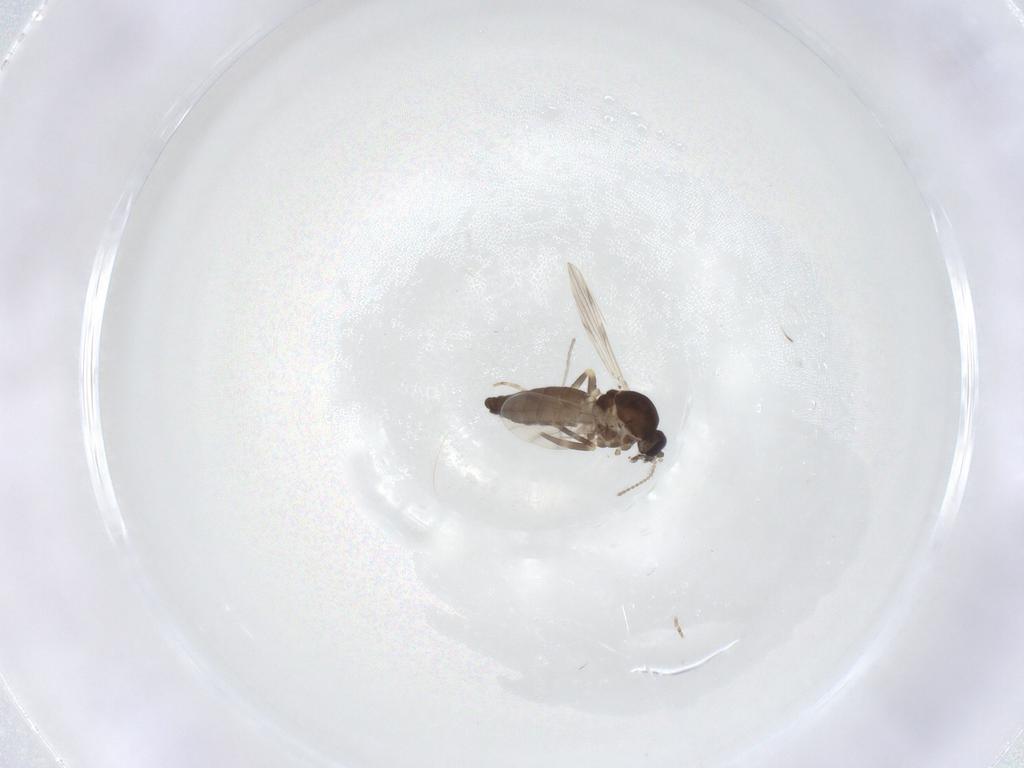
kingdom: Animalia
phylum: Arthropoda
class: Insecta
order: Diptera
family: Ceratopogonidae
